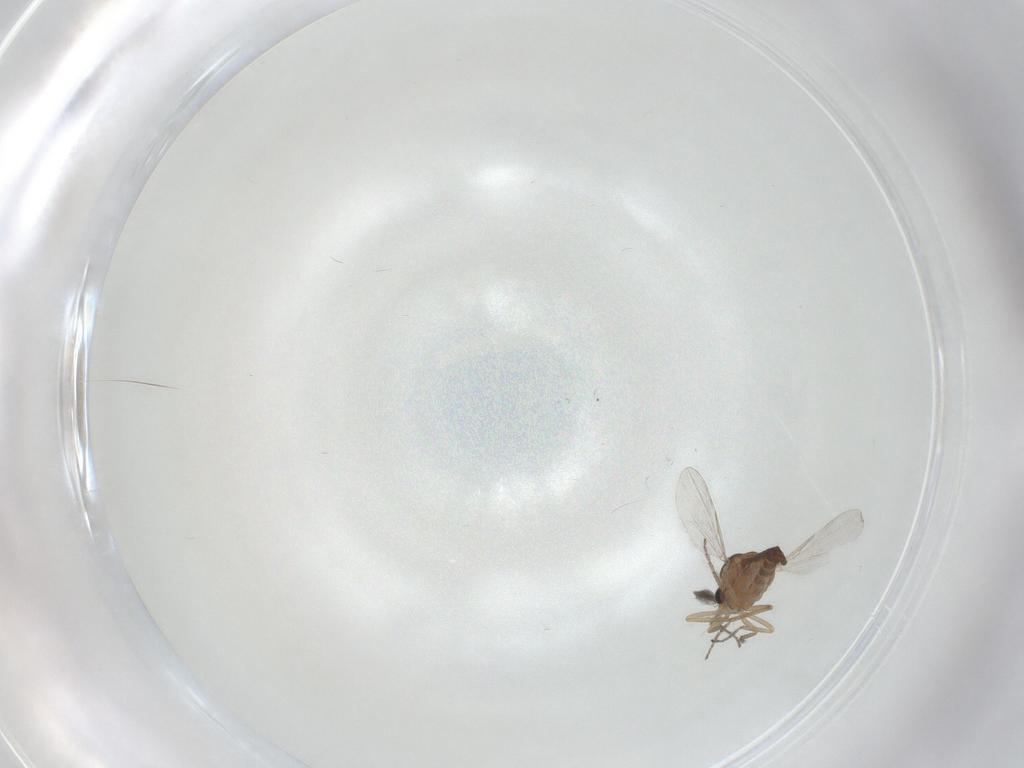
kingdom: Animalia
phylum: Arthropoda
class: Insecta
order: Diptera
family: Ceratopogonidae
